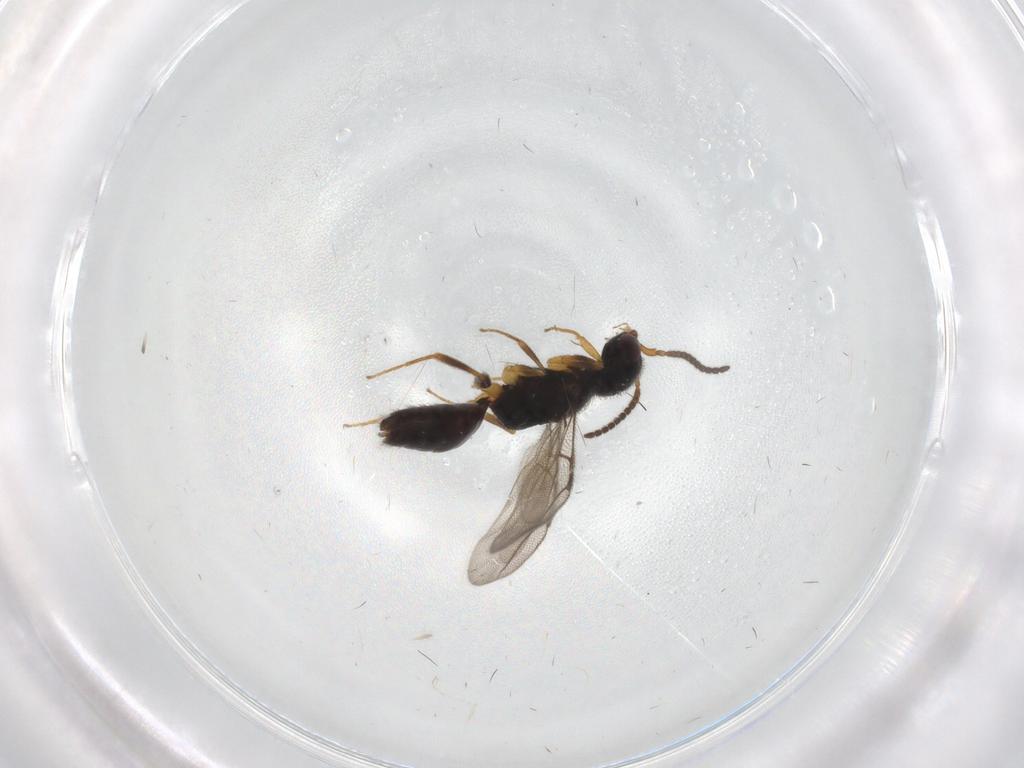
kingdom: Animalia
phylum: Arthropoda
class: Insecta
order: Hymenoptera
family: Bethylidae
